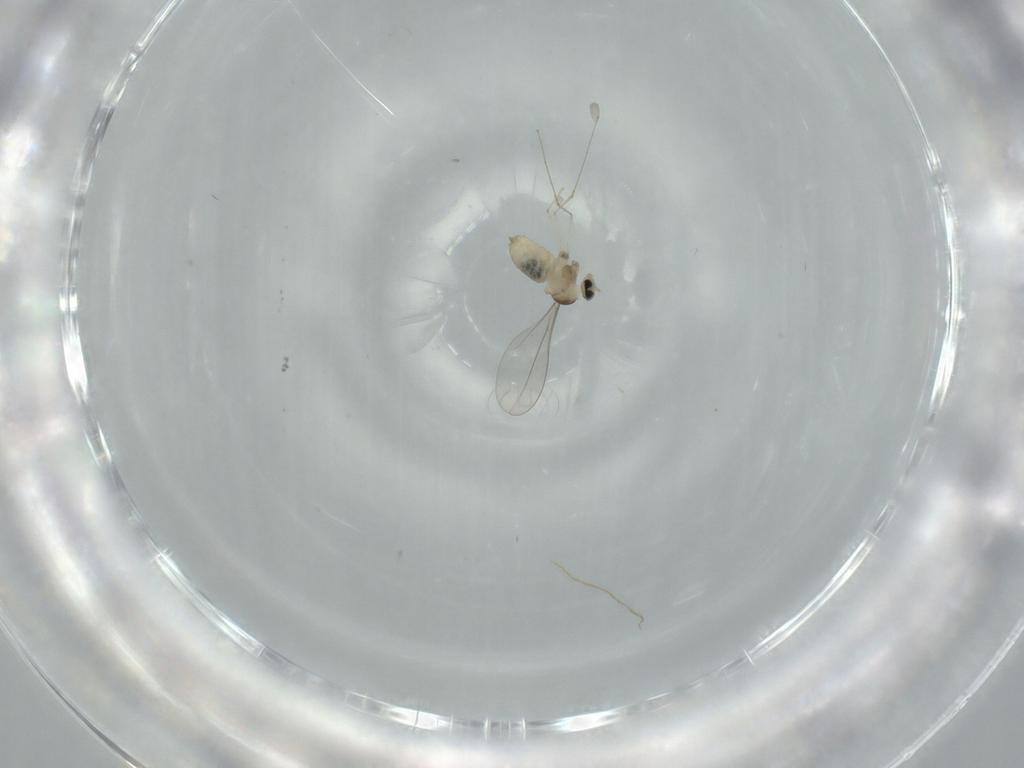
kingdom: Animalia
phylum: Arthropoda
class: Insecta
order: Diptera
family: Cecidomyiidae
